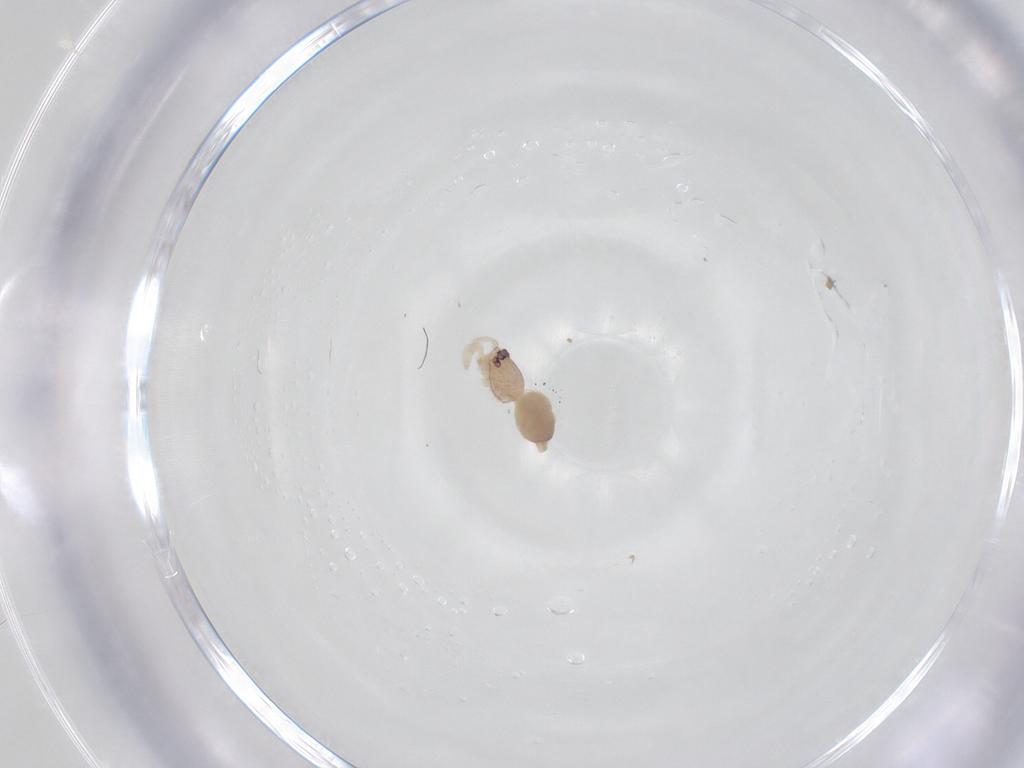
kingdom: Animalia
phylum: Arthropoda
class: Arachnida
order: Araneae
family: Idiopidae
